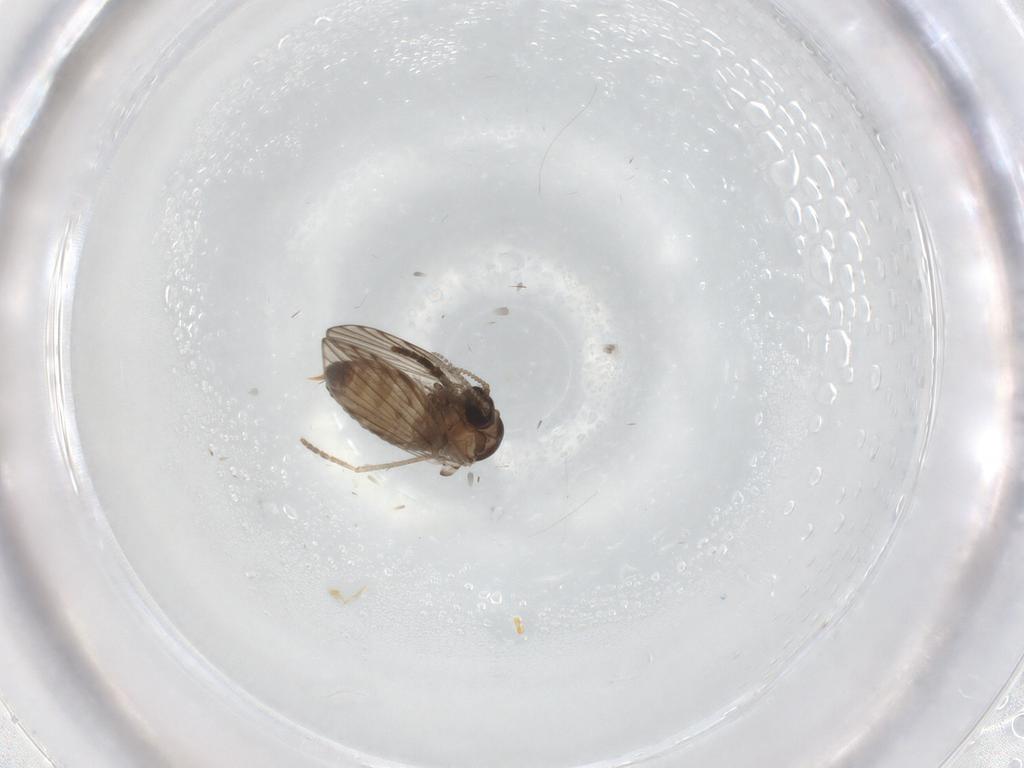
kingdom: Animalia
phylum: Arthropoda
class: Insecta
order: Diptera
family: Psychodidae
